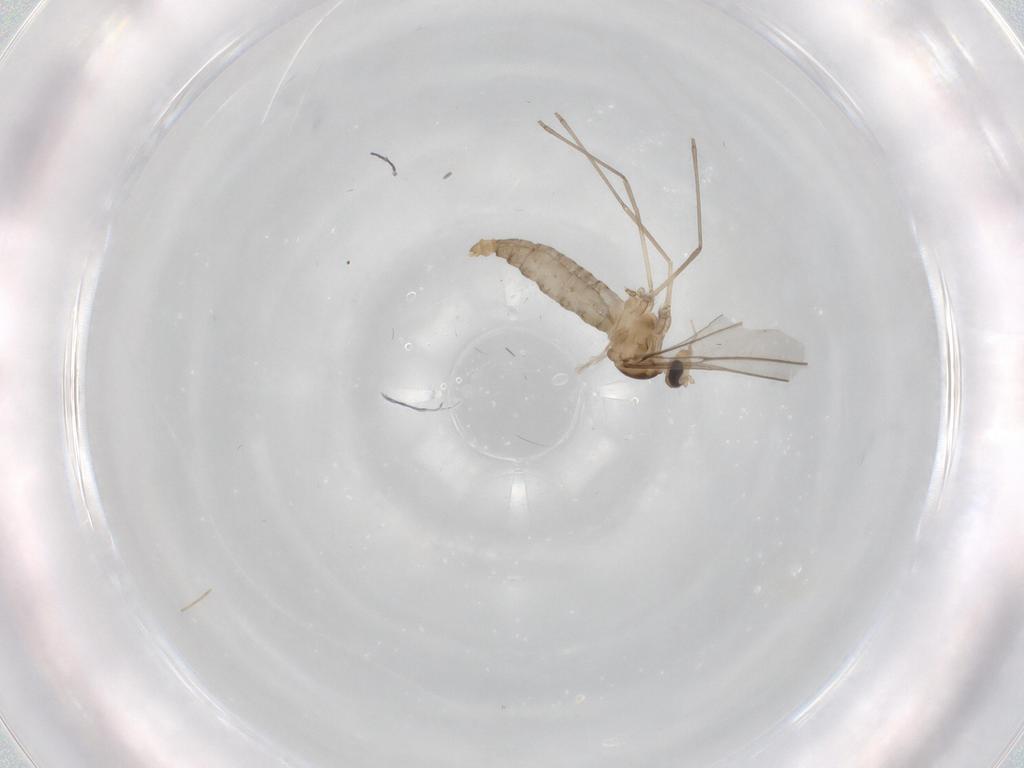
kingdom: Animalia
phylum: Arthropoda
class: Insecta
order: Diptera
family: Cecidomyiidae
